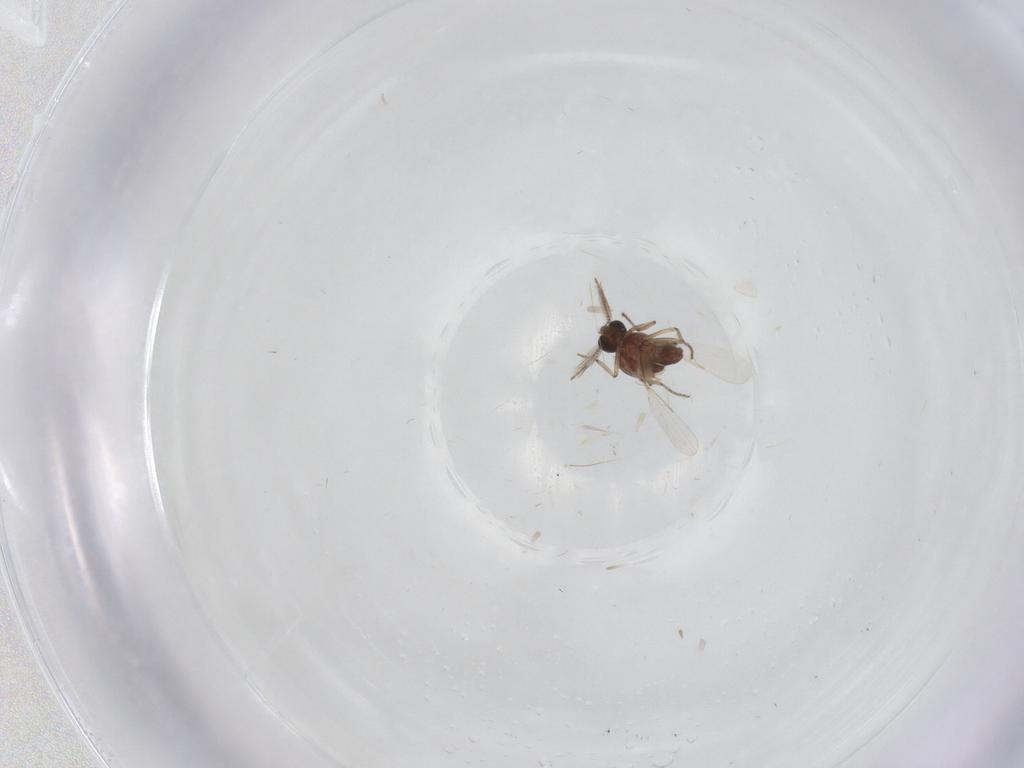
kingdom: Animalia
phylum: Arthropoda
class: Insecta
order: Diptera
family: Ceratopogonidae
